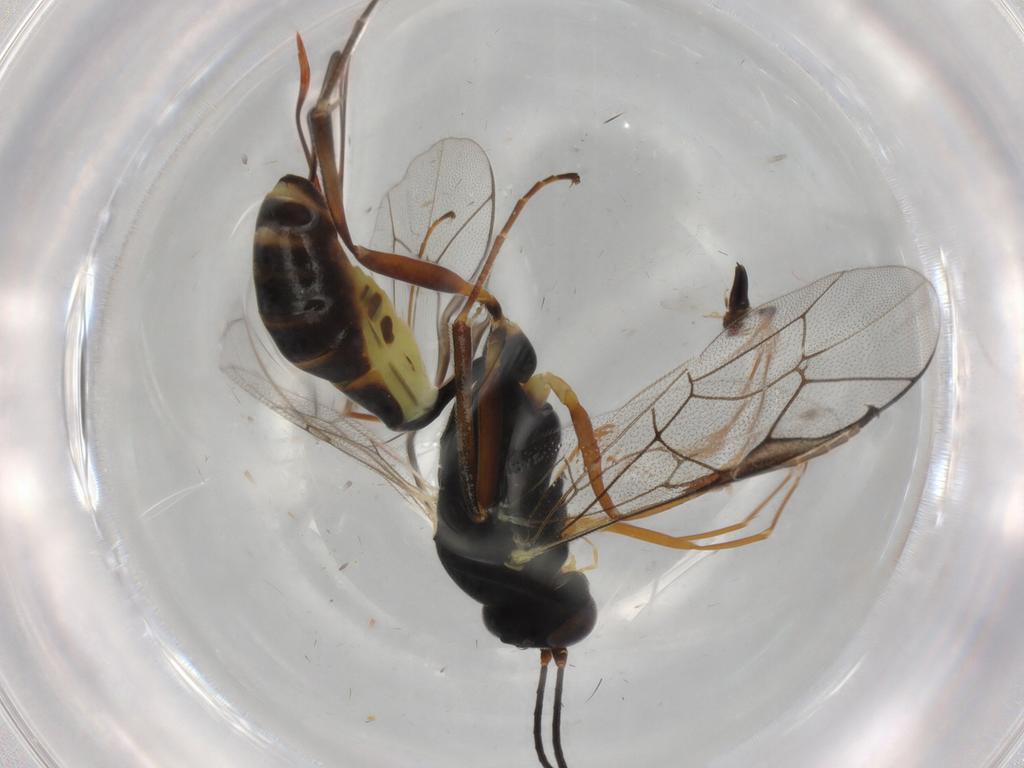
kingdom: Animalia
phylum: Arthropoda
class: Insecta
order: Hymenoptera
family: Ichneumonidae
